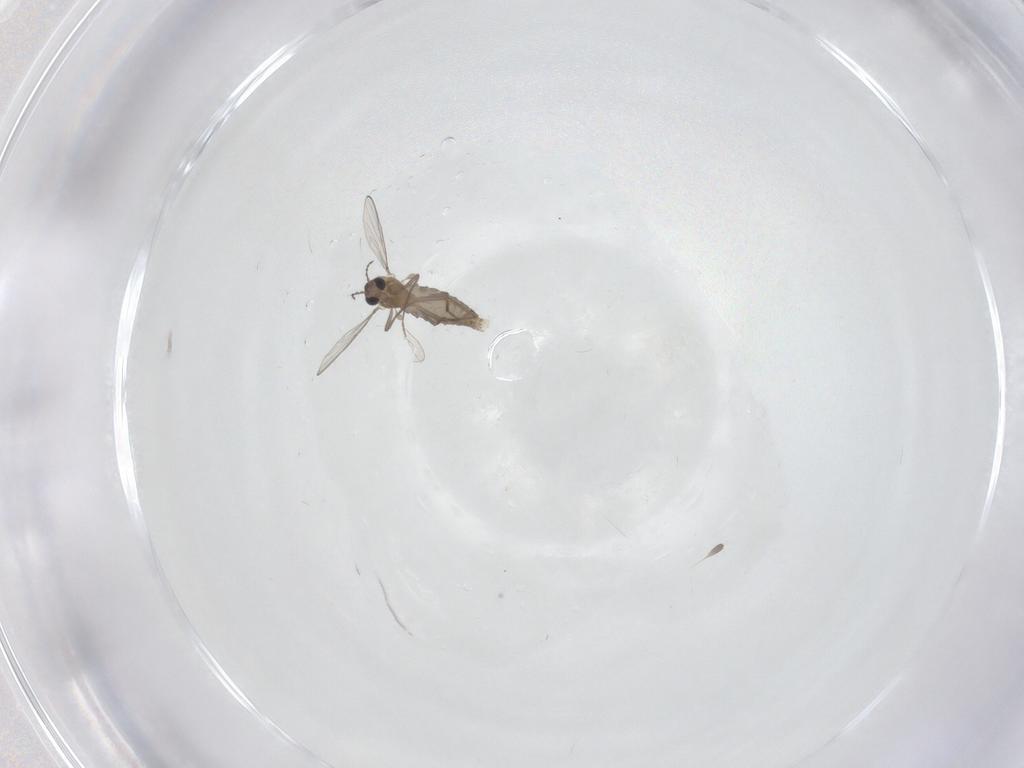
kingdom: Animalia
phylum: Arthropoda
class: Insecta
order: Diptera
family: Chironomidae
